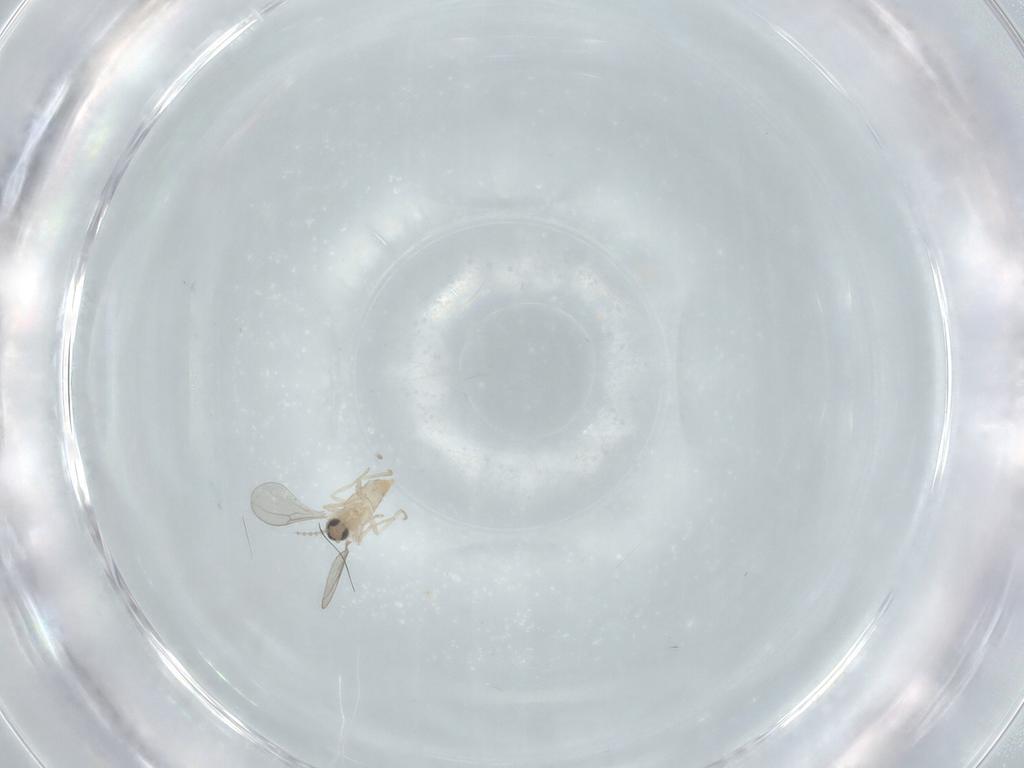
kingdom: Animalia
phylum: Arthropoda
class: Insecta
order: Diptera
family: Cecidomyiidae
